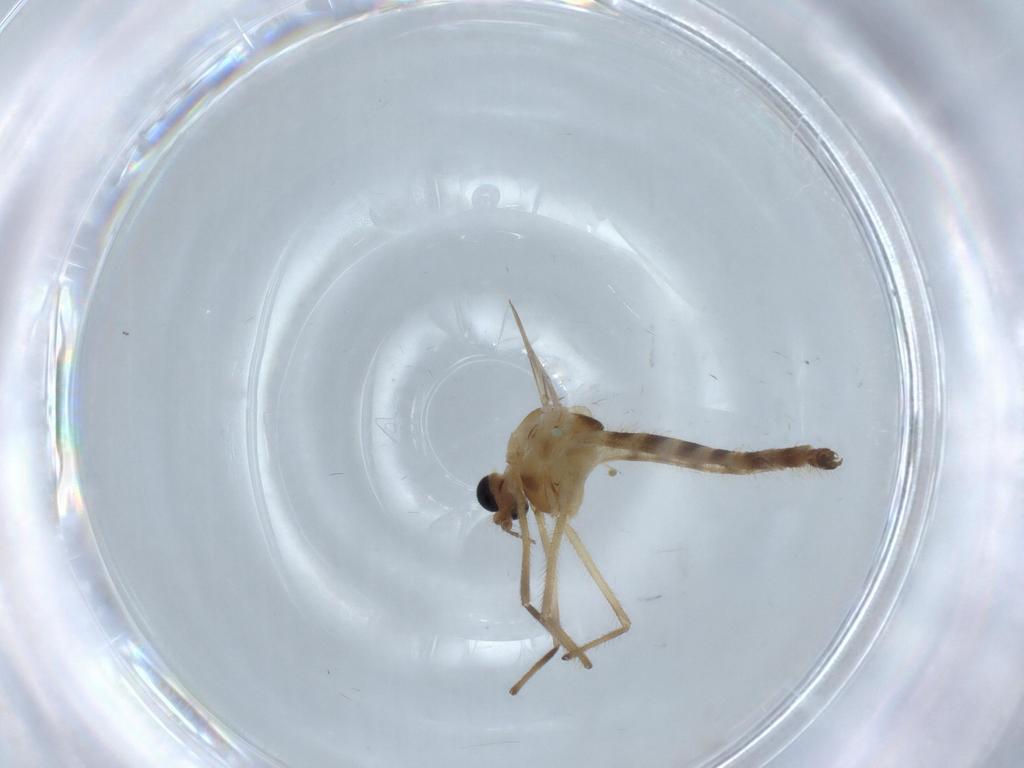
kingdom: Animalia
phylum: Arthropoda
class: Insecta
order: Diptera
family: Chironomidae
